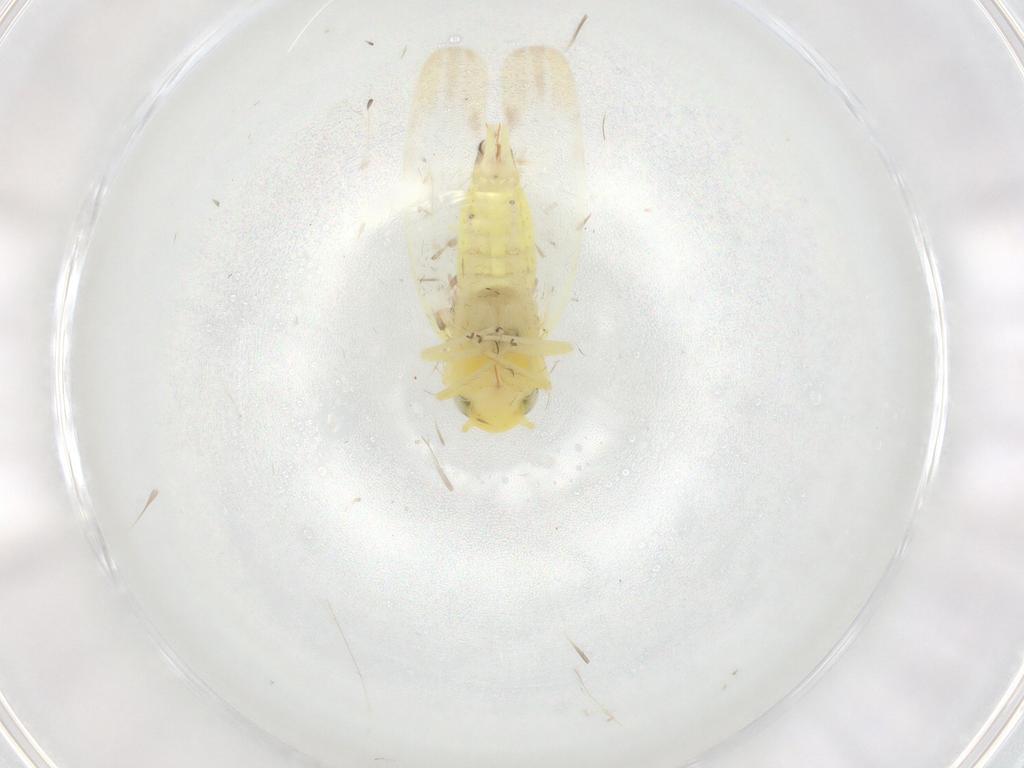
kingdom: Animalia
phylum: Arthropoda
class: Insecta
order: Hemiptera
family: Cicadellidae
